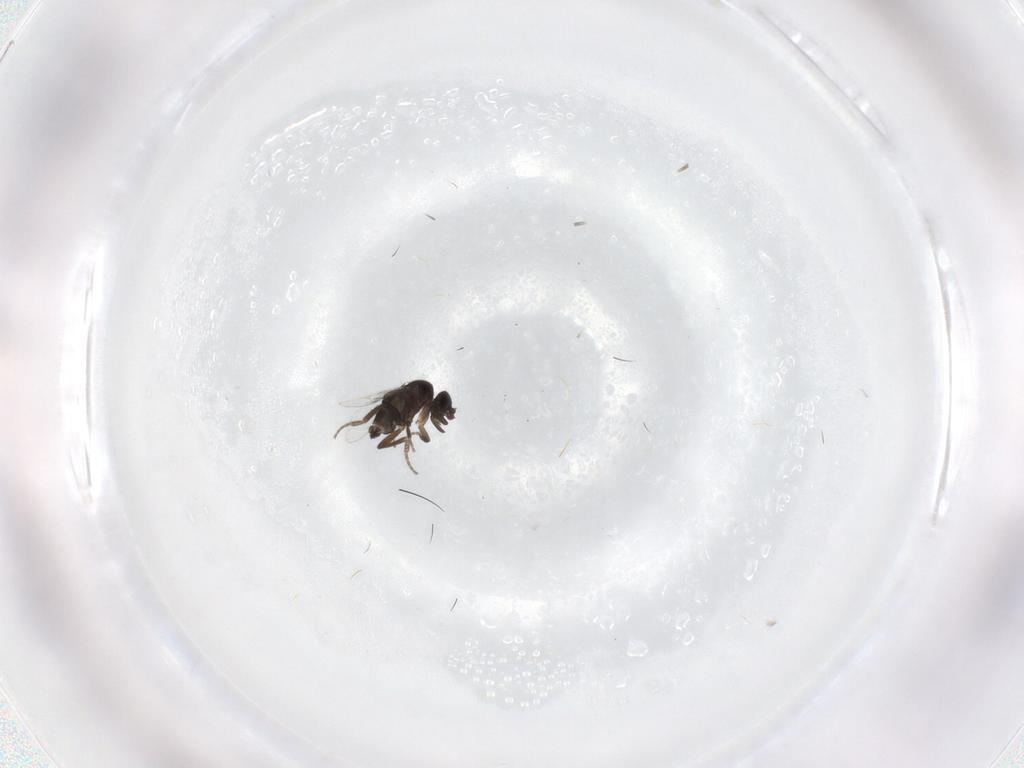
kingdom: Animalia
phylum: Arthropoda
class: Insecta
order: Diptera
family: Phoridae
